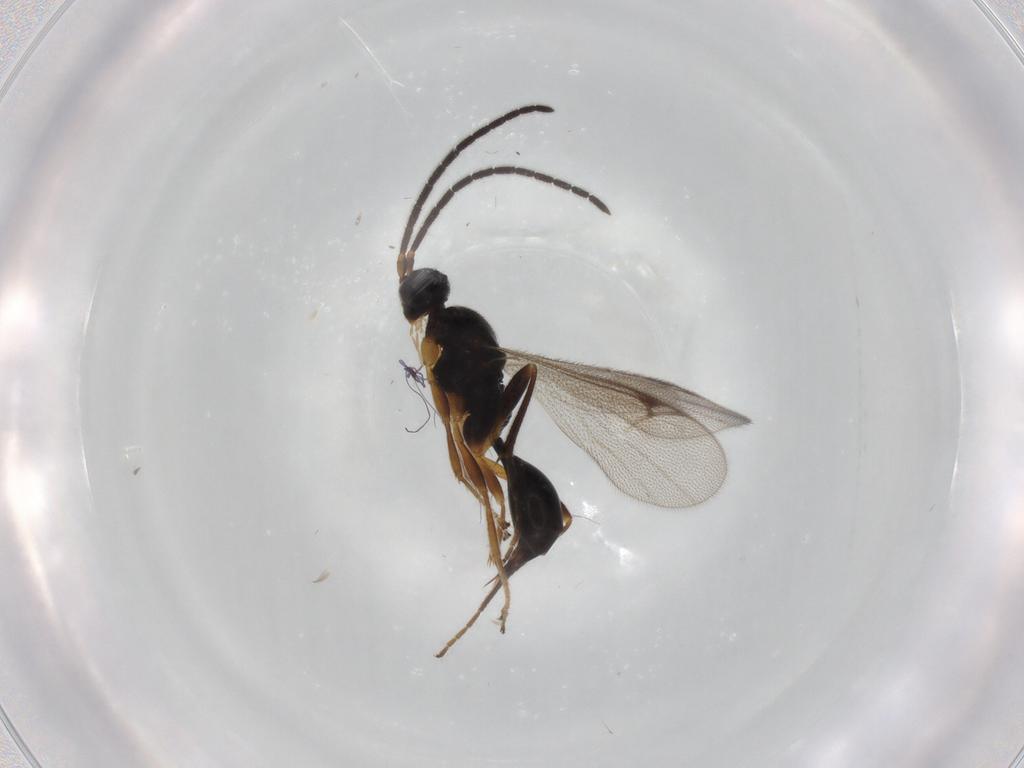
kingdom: Animalia
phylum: Arthropoda
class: Insecta
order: Hymenoptera
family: Proctotrupidae
